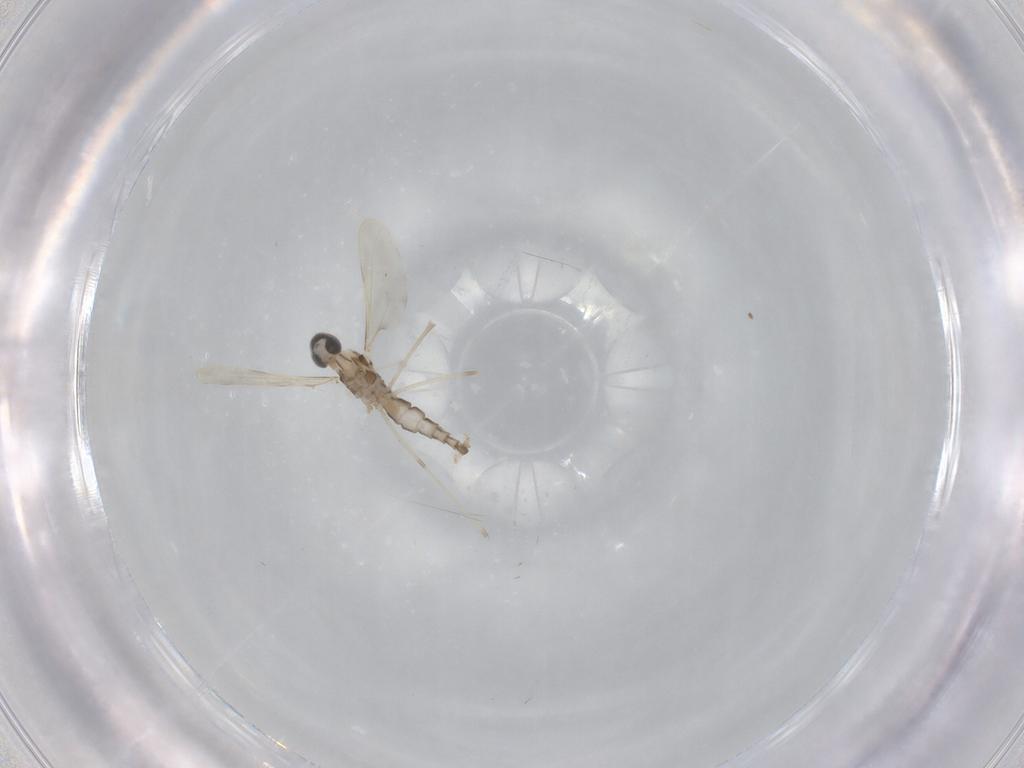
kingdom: Animalia
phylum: Arthropoda
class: Insecta
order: Diptera
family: Cecidomyiidae
